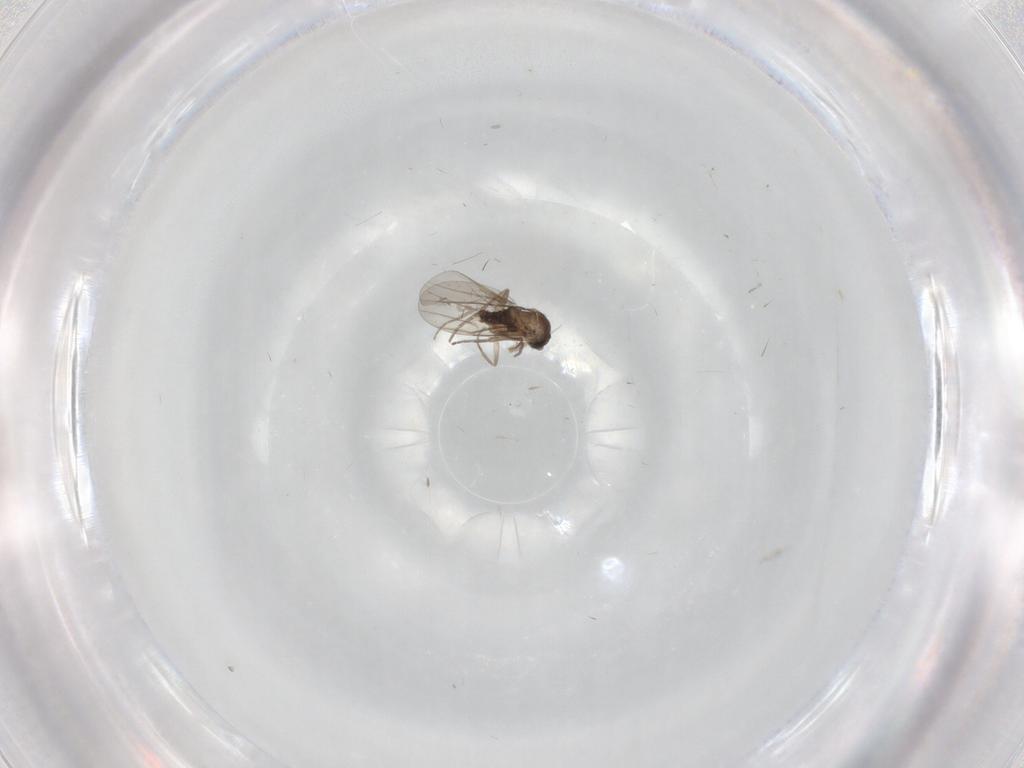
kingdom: Animalia
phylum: Arthropoda
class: Insecta
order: Diptera
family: Phoridae
